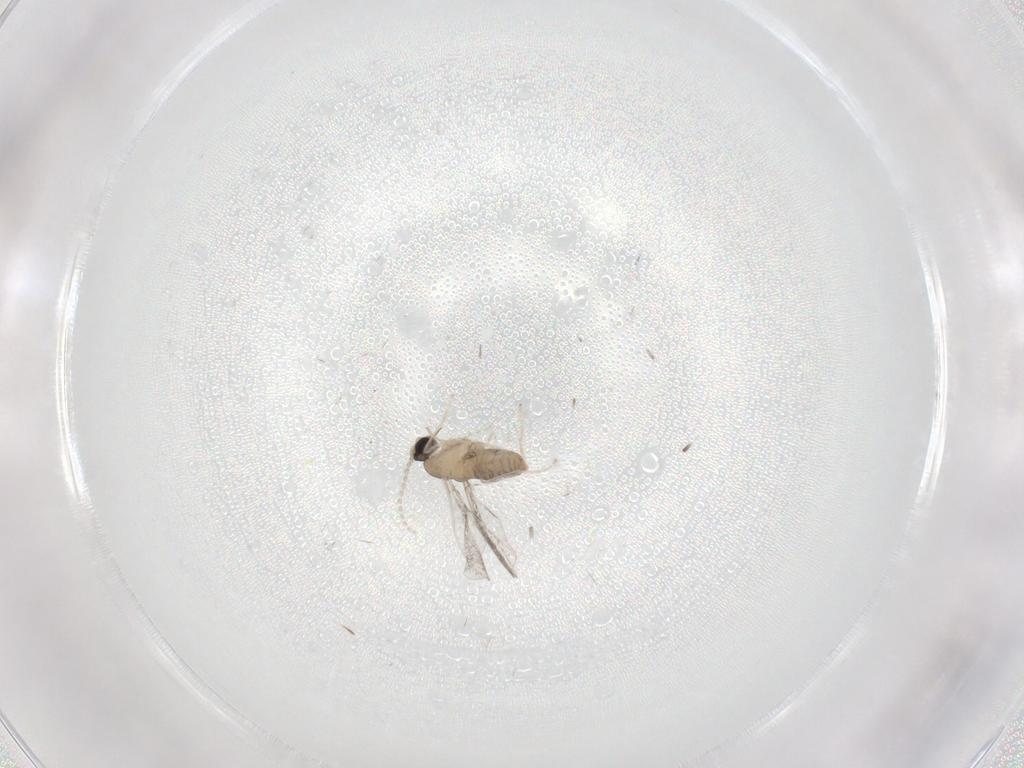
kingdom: Animalia
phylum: Arthropoda
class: Insecta
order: Diptera
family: Cecidomyiidae
